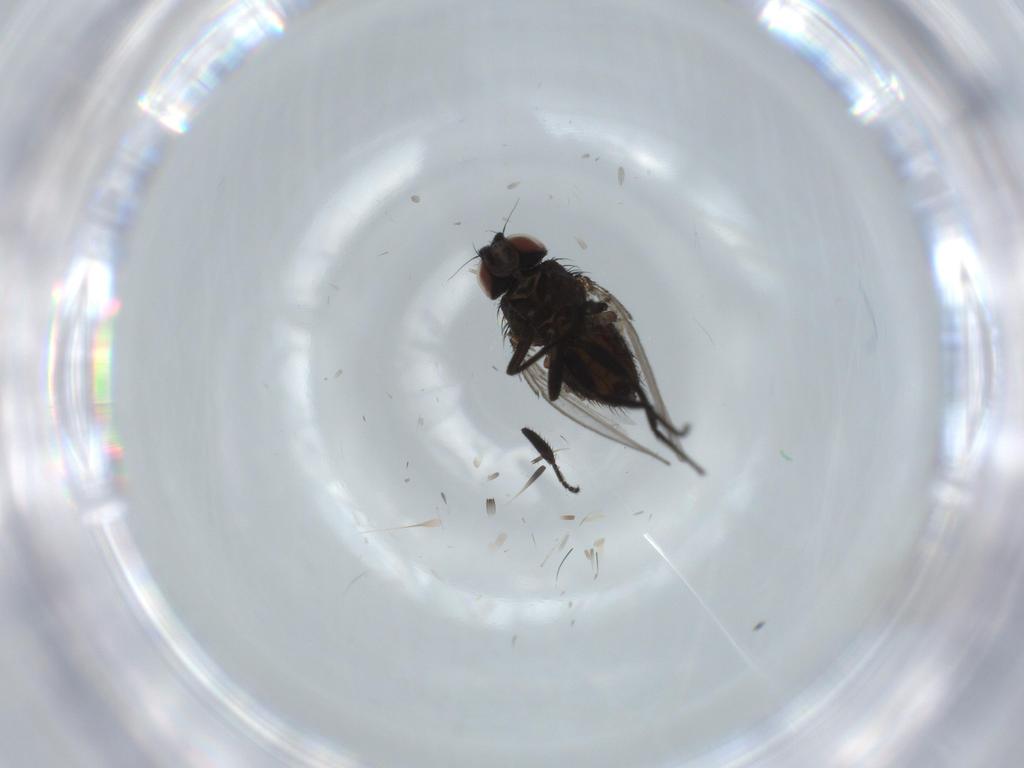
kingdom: Animalia
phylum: Arthropoda
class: Insecta
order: Diptera
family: Milichiidae
